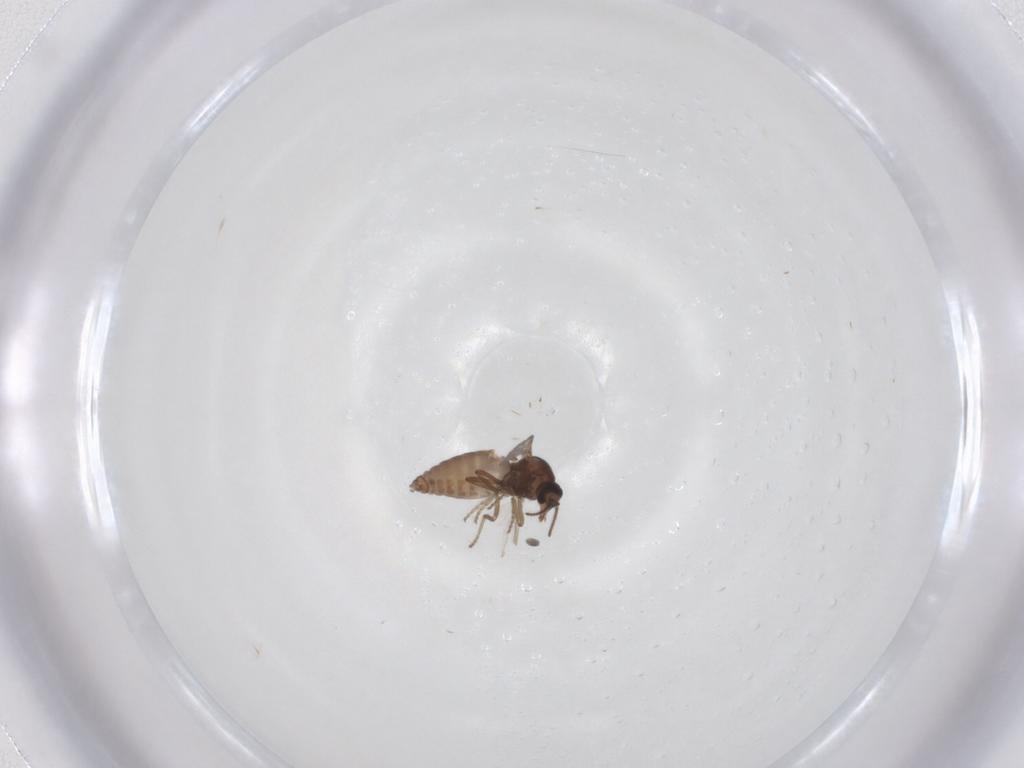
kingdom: Animalia
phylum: Arthropoda
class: Insecta
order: Diptera
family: Ceratopogonidae
